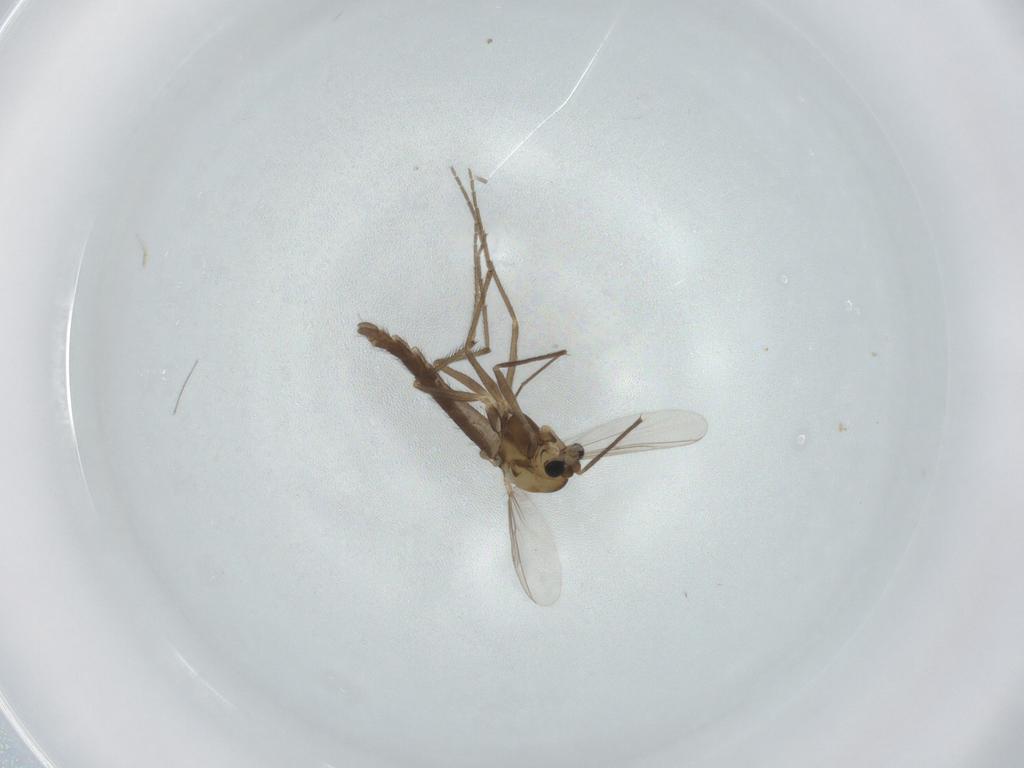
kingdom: Animalia
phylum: Arthropoda
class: Insecta
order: Diptera
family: Chironomidae
